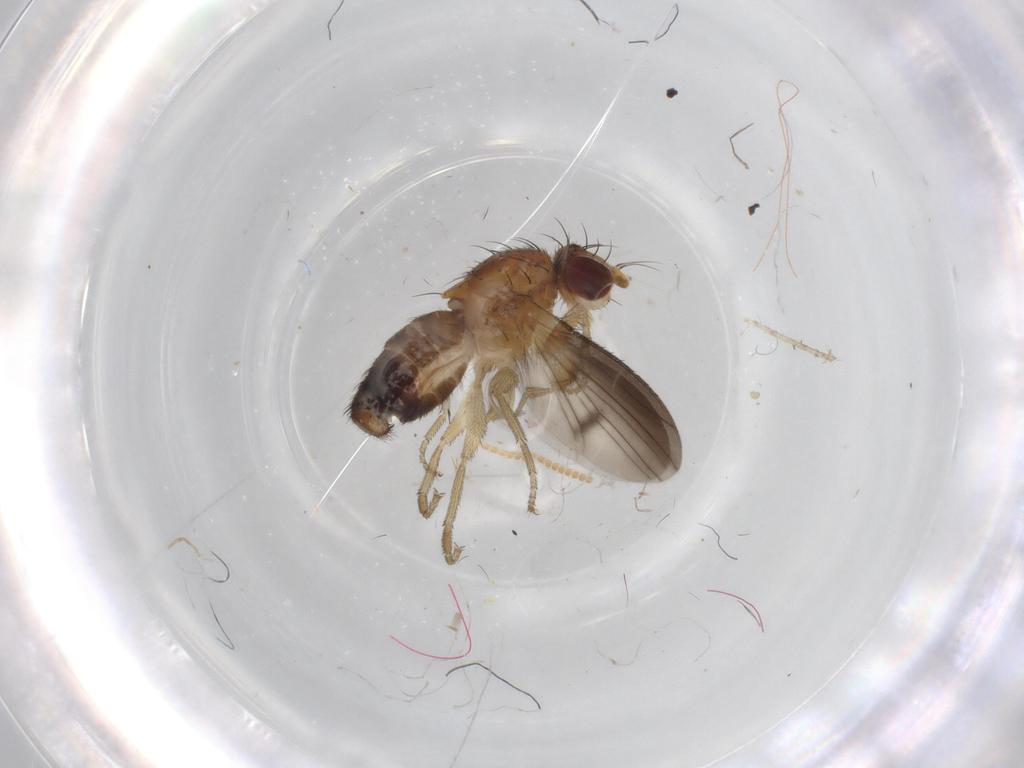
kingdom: Animalia
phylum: Arthropoda
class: Insecta
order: Diptera
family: Heleomyzidae
